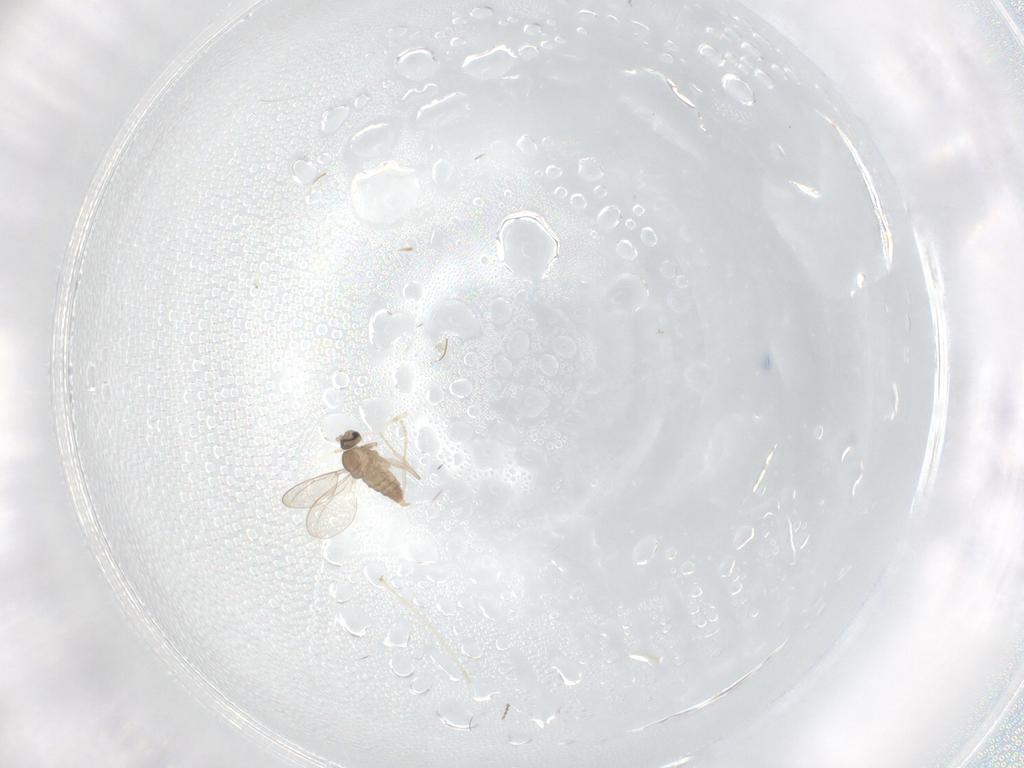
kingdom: Animalia
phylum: Arthropoda
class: Insecta
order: Diptera
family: Cecidomyiidae
